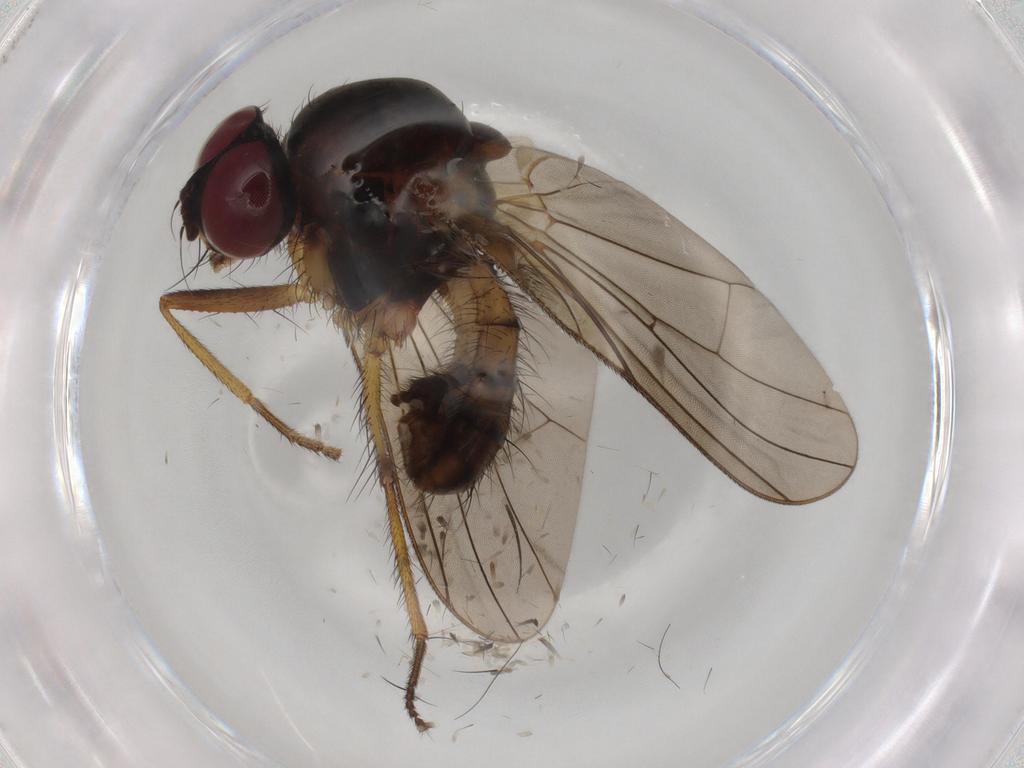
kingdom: Animalia
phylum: Arthropoda
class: Insecta
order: Diptera
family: Anthomyiidae
